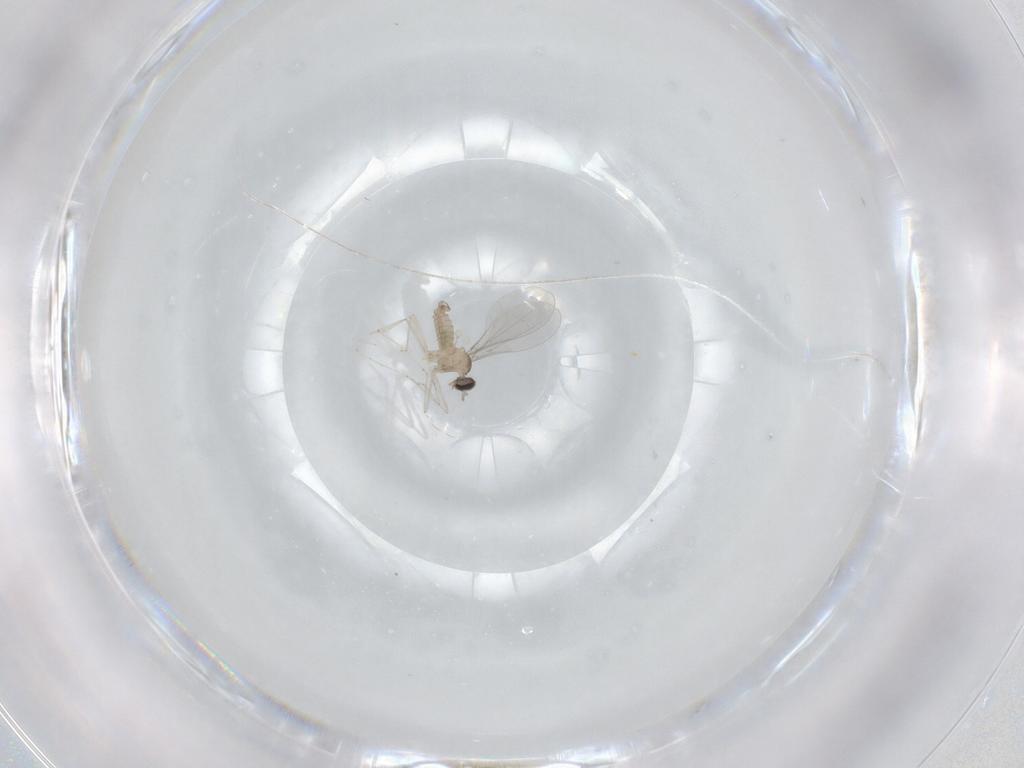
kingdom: Animalia
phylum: Arthropoda
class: Insecta
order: Diptera
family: Cecidomyiidae
